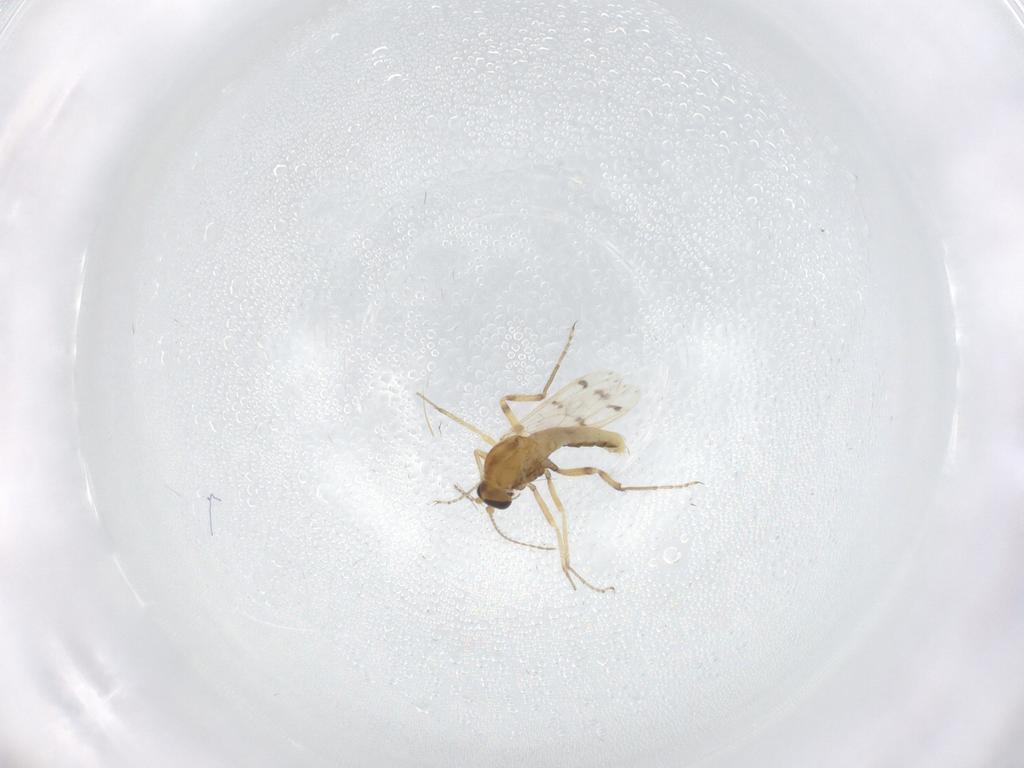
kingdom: Animalia
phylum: Arthropoda
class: Insecta
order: Diptera
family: Ceratopogonidae
